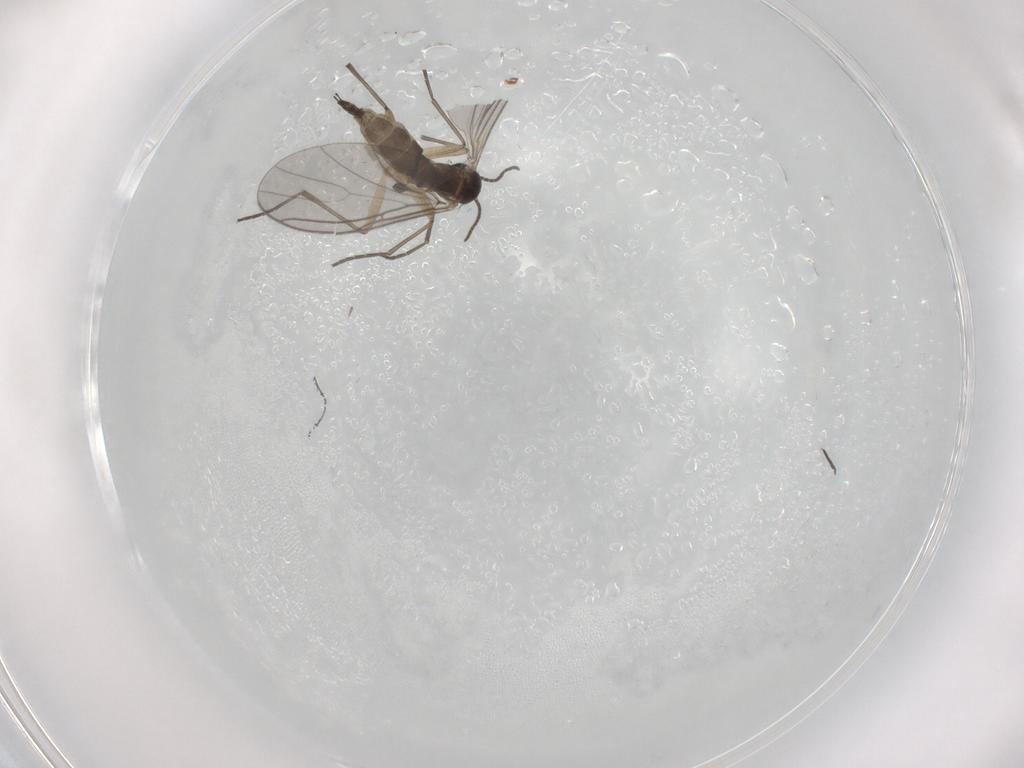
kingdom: Animalia
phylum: Arthropoda
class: Insecta
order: Diptera
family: Sciaridae
